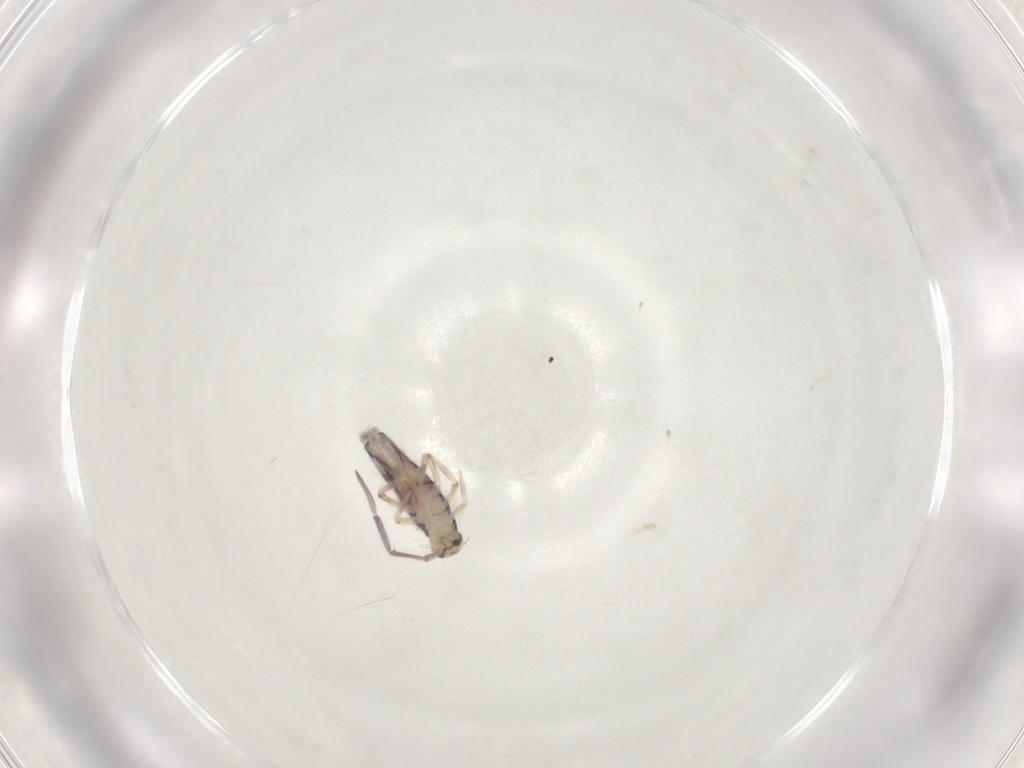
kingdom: Animalia
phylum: Arthropoda
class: Collembola
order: Entomobryomorpha
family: Entomobryidae
